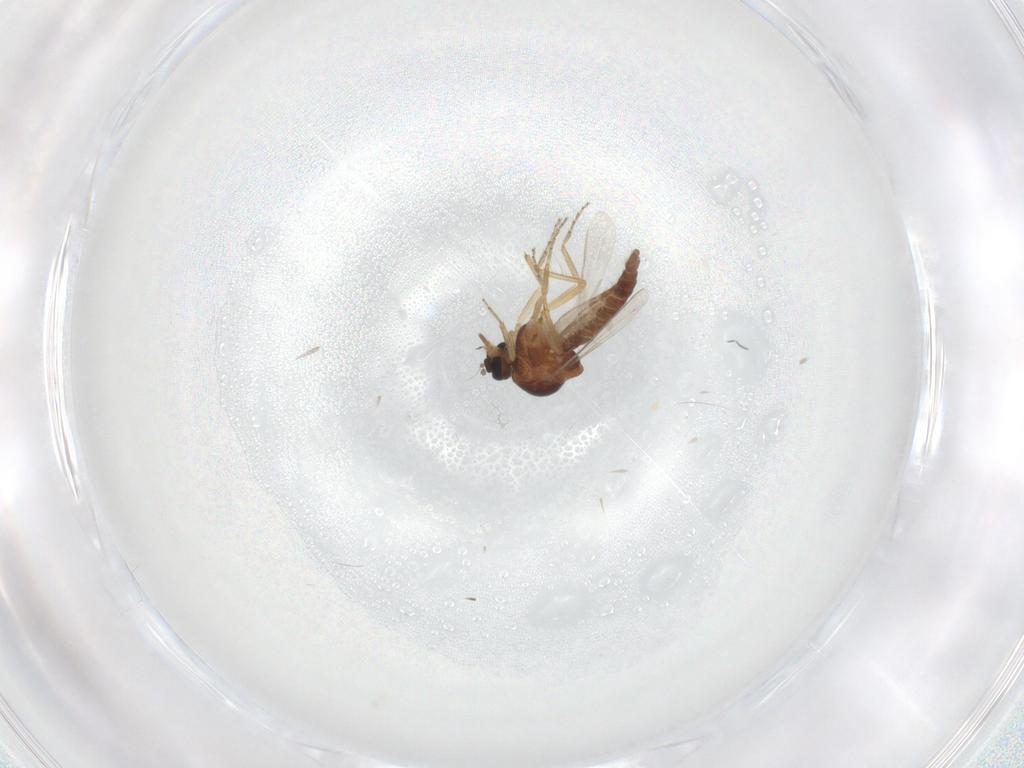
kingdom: Animalia
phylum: Arthropoda
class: Insecta
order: Diptera
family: Ceratopogonidae
